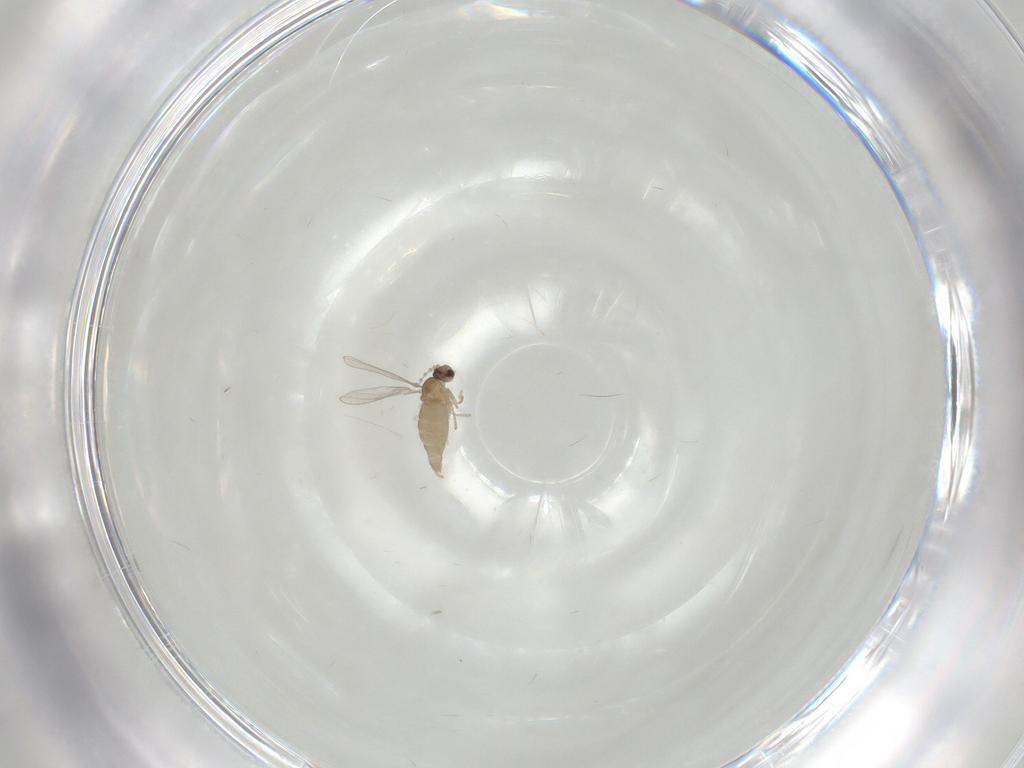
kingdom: Animalia
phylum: Arthropoda
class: Insecta
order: Diptera
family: Cecidomyiidae
